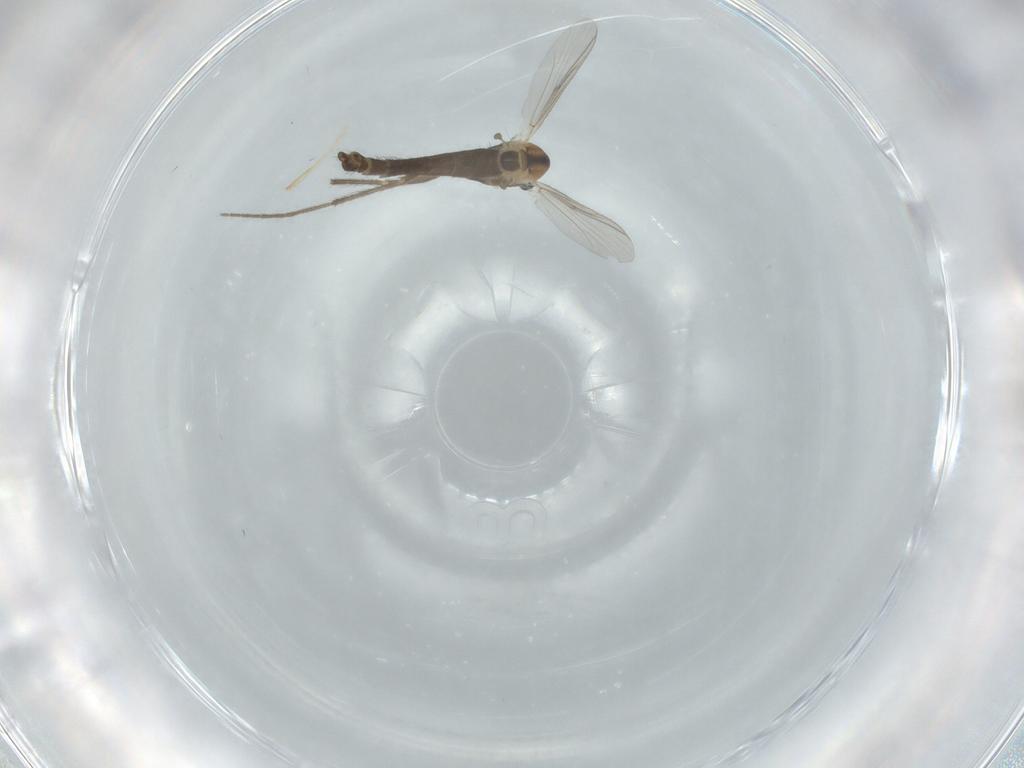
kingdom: Animalia
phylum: Arthropoda
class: Insecta
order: Diptera
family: Chironomidae
